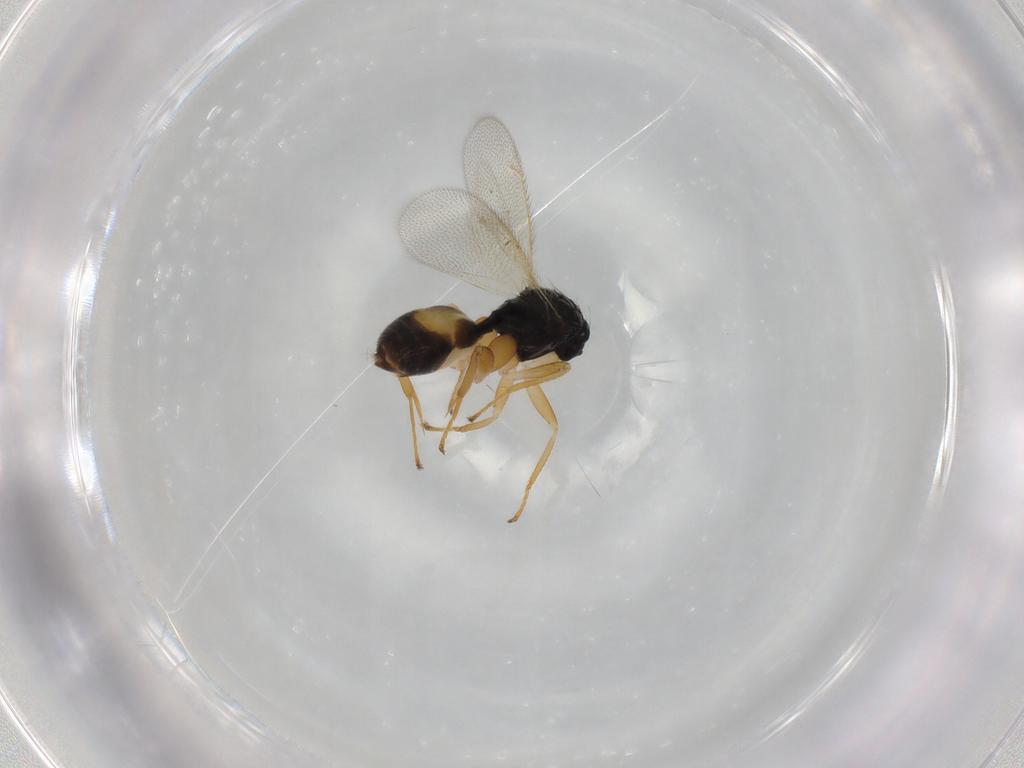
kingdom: Animalia
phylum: Arthropoda
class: Insecta
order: Hymenoptera
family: Eulophidae
